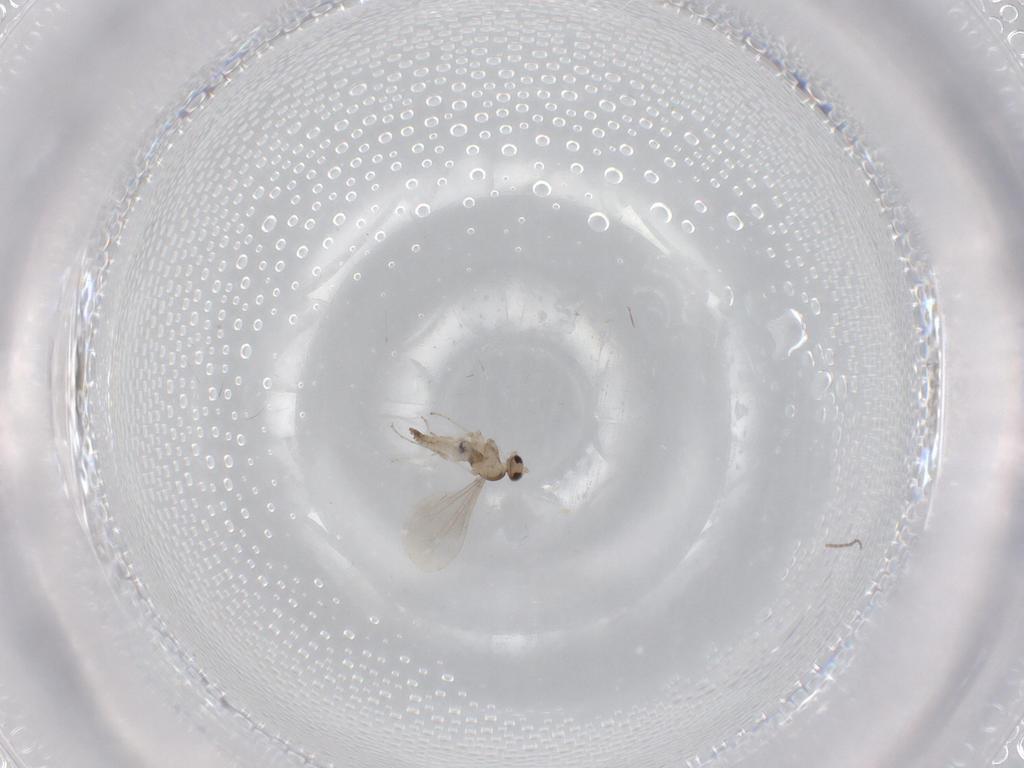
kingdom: Animalia
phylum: Arthropoda
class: Insecta
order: Diptera
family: Cecidomyiidae
